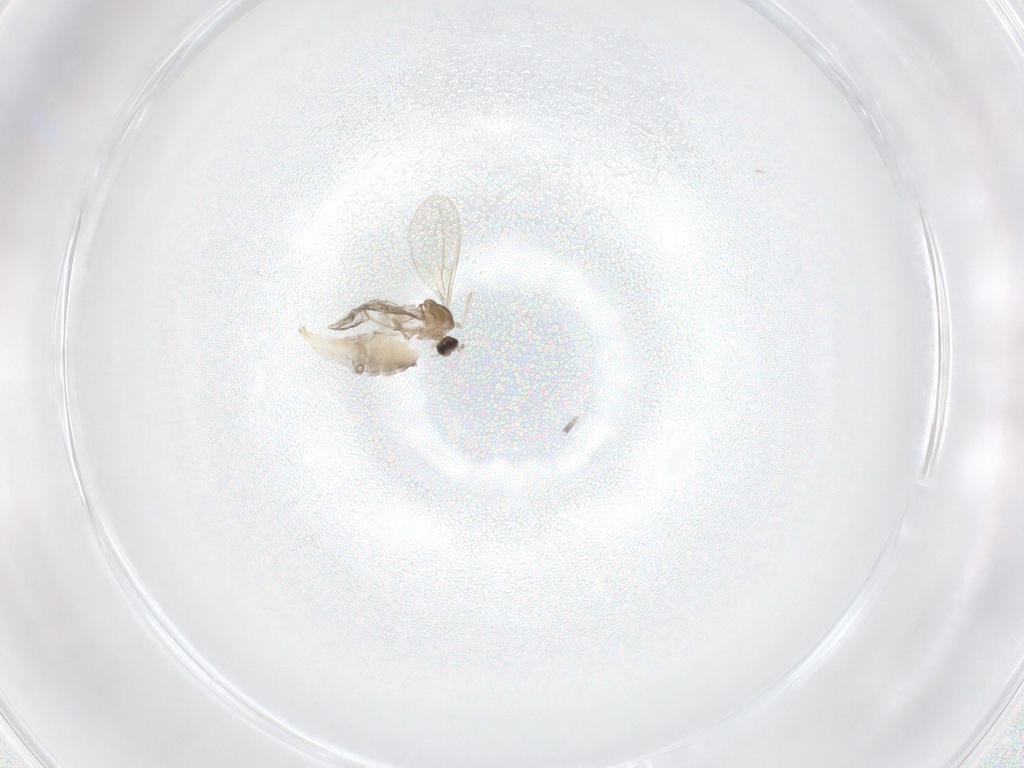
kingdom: Animalia
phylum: Arthropoda
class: Insecta
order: Diptera
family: Cecidomyiidae
